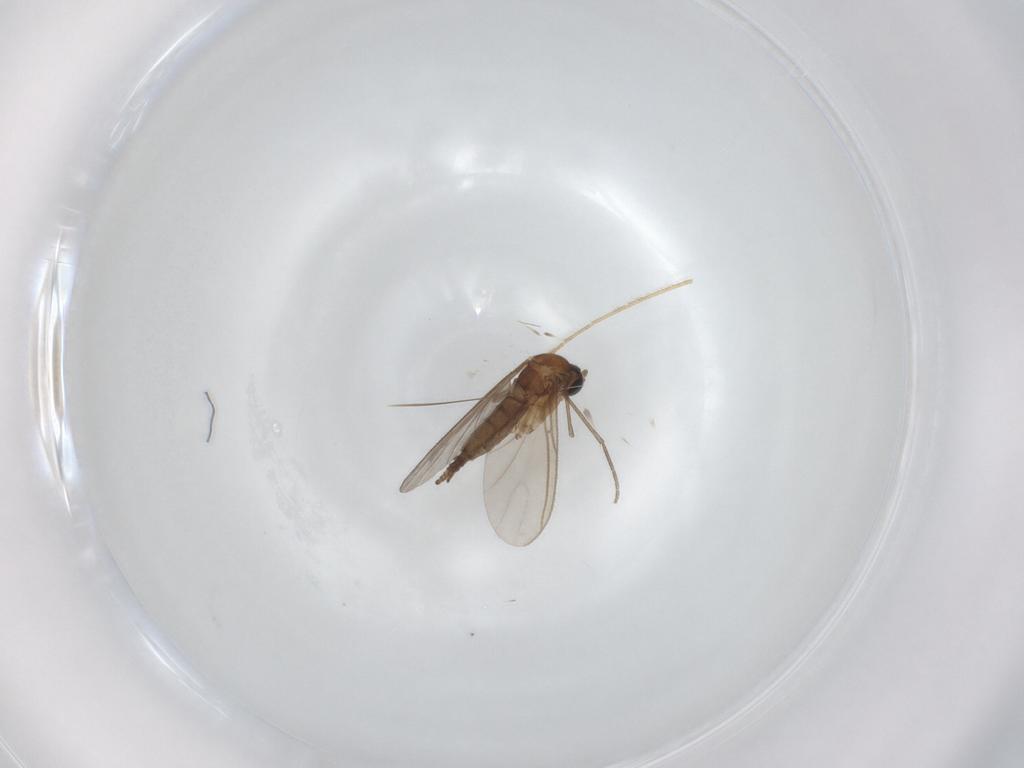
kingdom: Animalia
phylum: Arthropoda
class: Insecta
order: Diptera
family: Sciaridae
